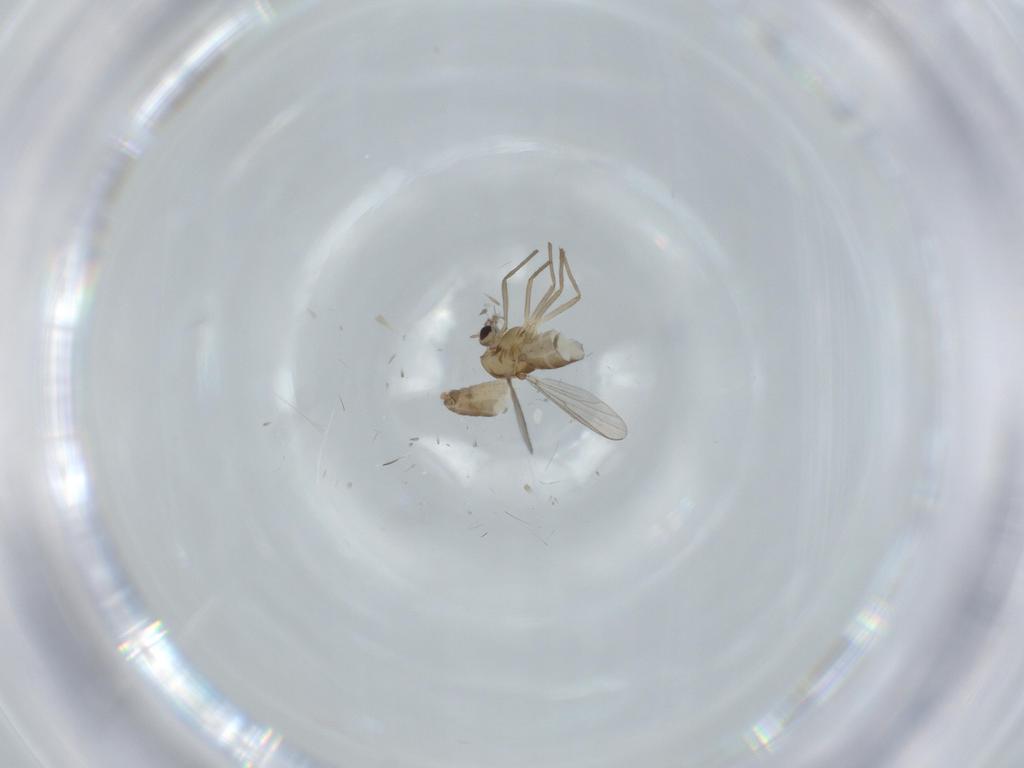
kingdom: Animalia
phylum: Arthropoda
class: Insecta
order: Diptera
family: Chironomidae
